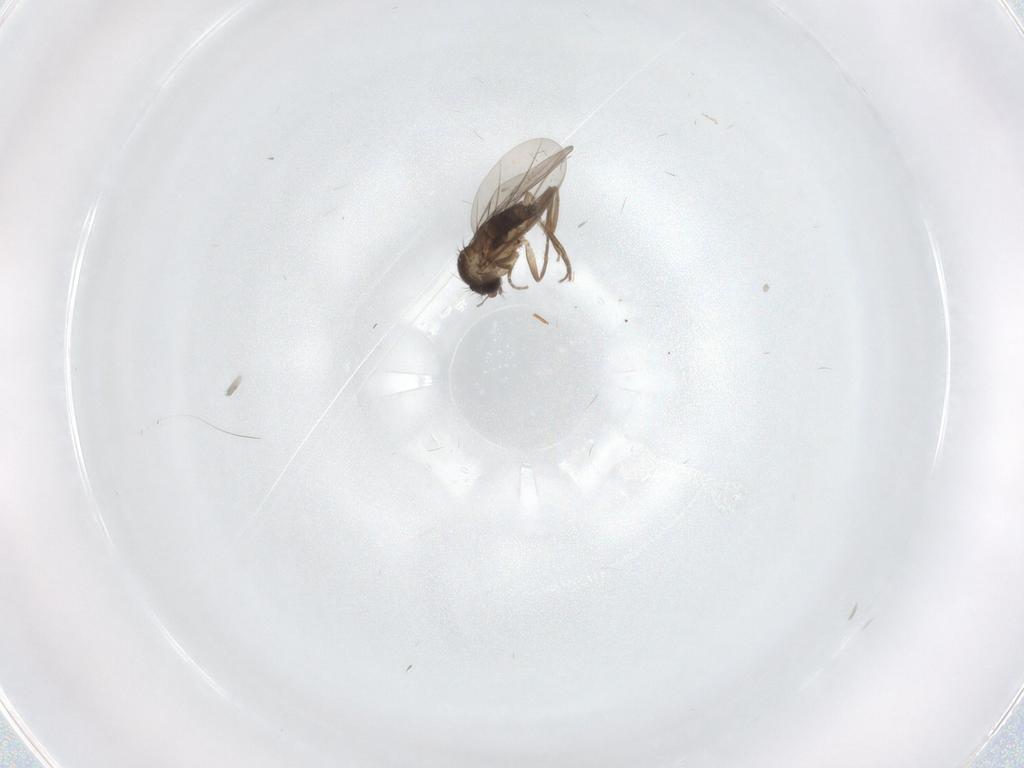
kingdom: Animalia
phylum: Arthropoda
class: Insecta
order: Diptera
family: Phoridae
